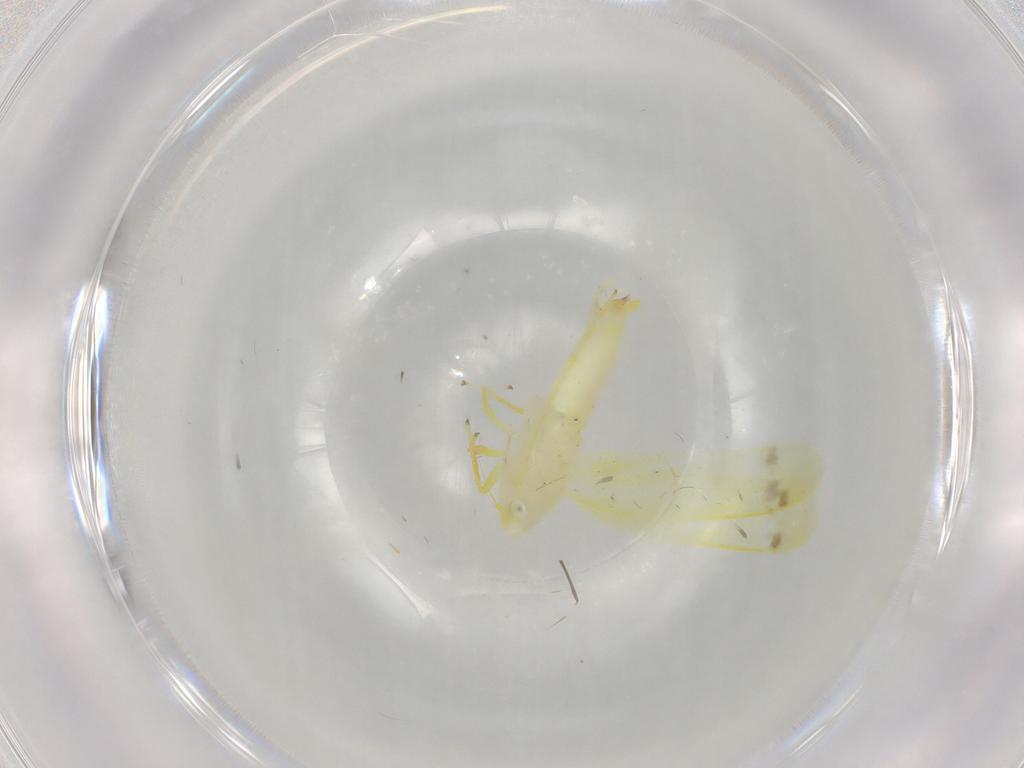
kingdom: Animalia
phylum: Arthropoda
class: Insecta
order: Hemiptera
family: Cicadellidae
